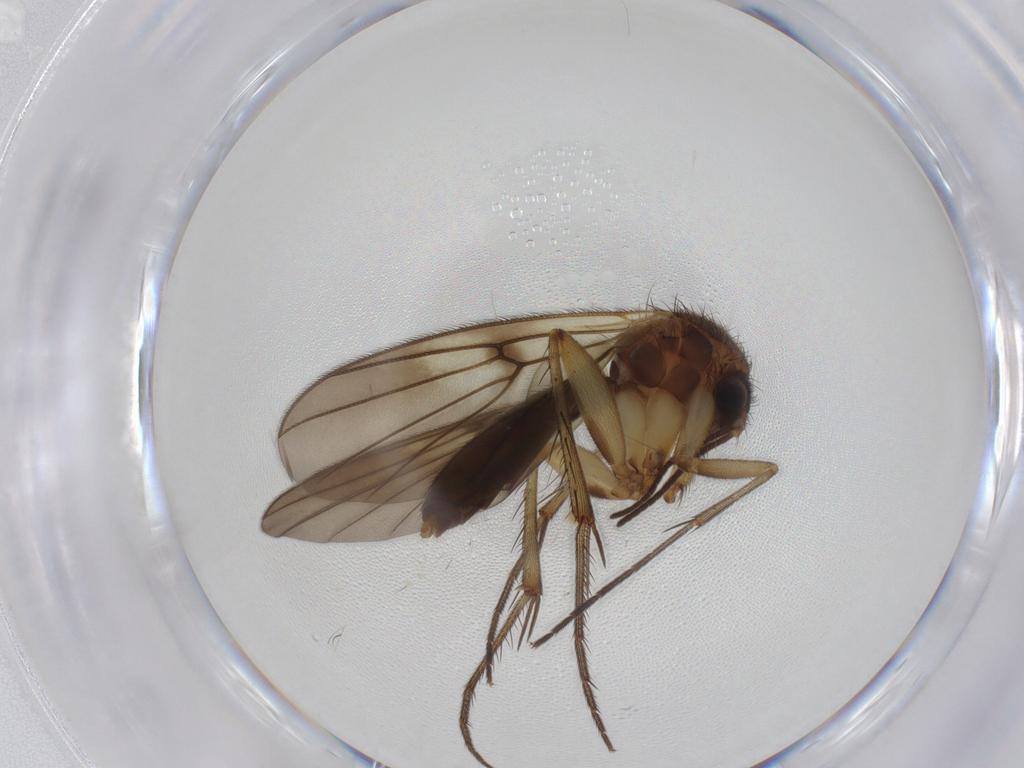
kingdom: Animalia
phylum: Arthropoda
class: Insecta
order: Diptera
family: Mycetophilidae
